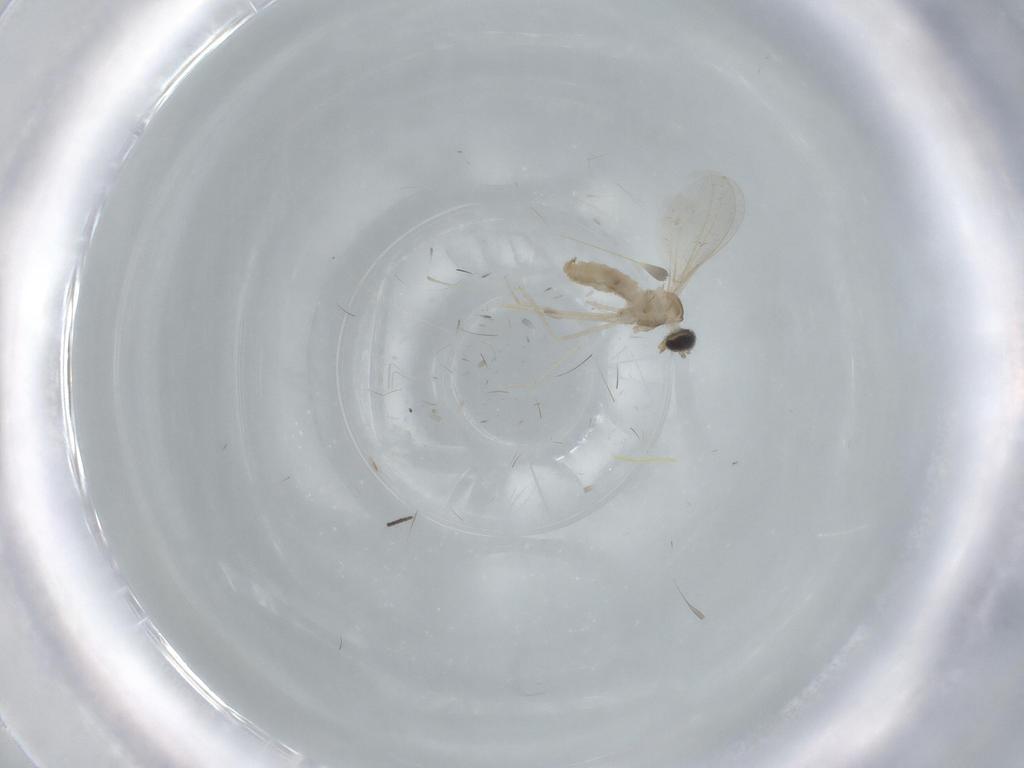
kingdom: Animalia
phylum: Arthropoda
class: Insecta
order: Diptera
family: Cecidomyiidae
